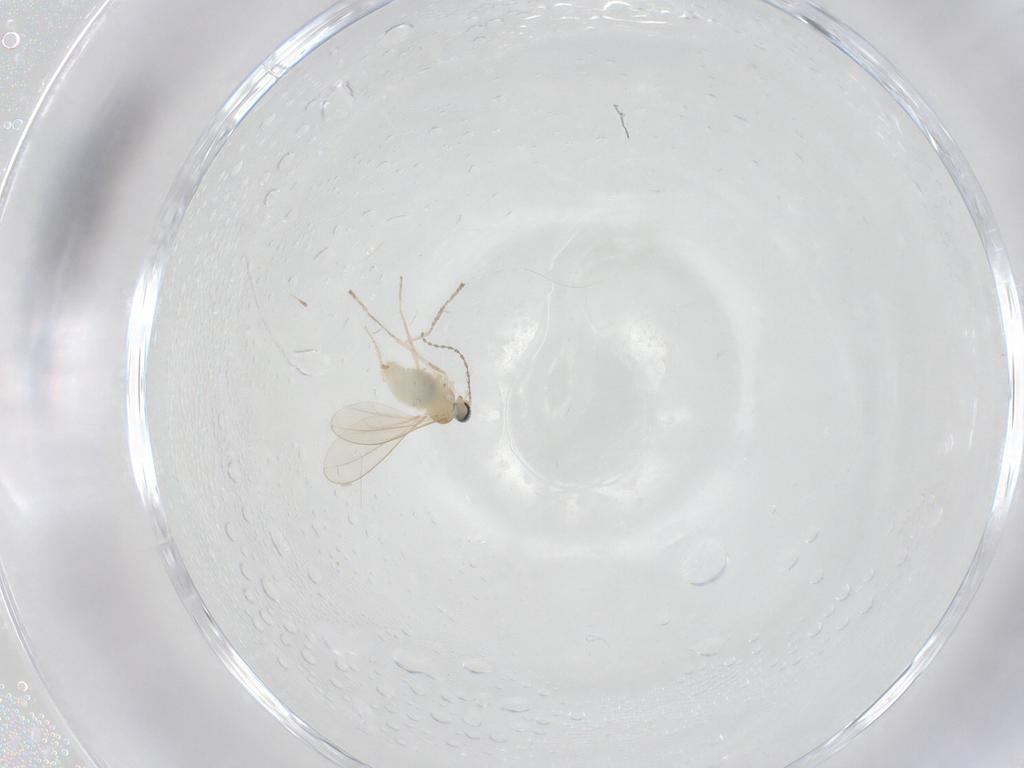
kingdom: Animalia
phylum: Arthropoda
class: Insecta
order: Diptera
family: Cecidomyiidae
